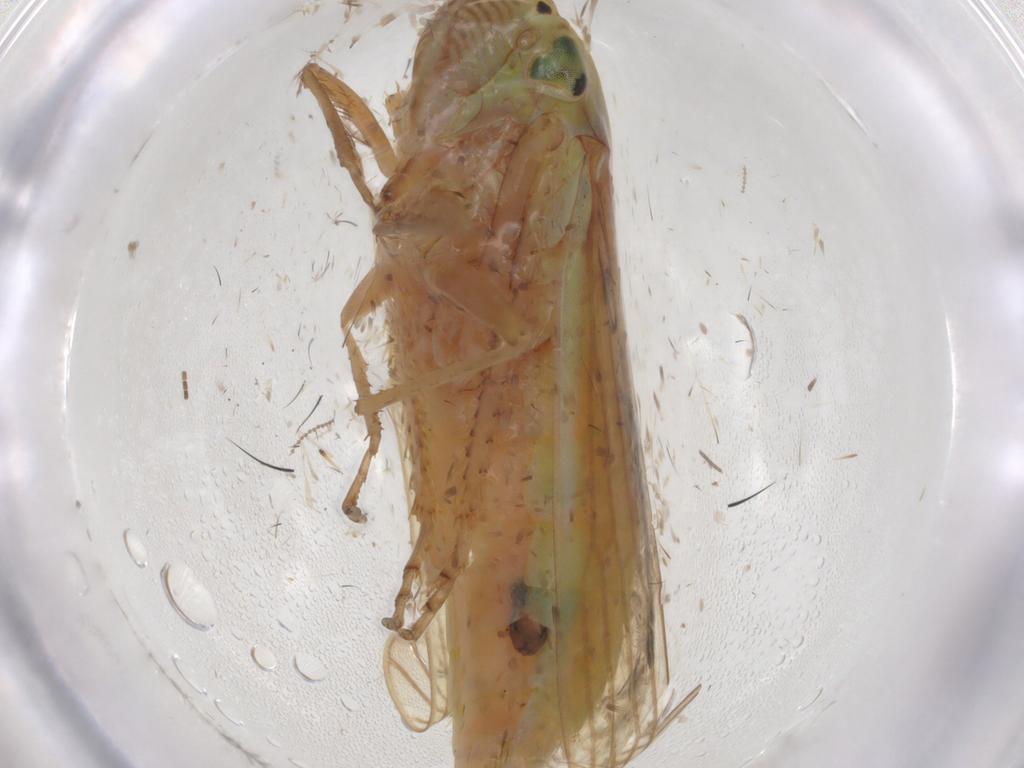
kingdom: Animalia
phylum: Arthropoda
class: Insecta
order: Hemiptera
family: Cicadellidae
